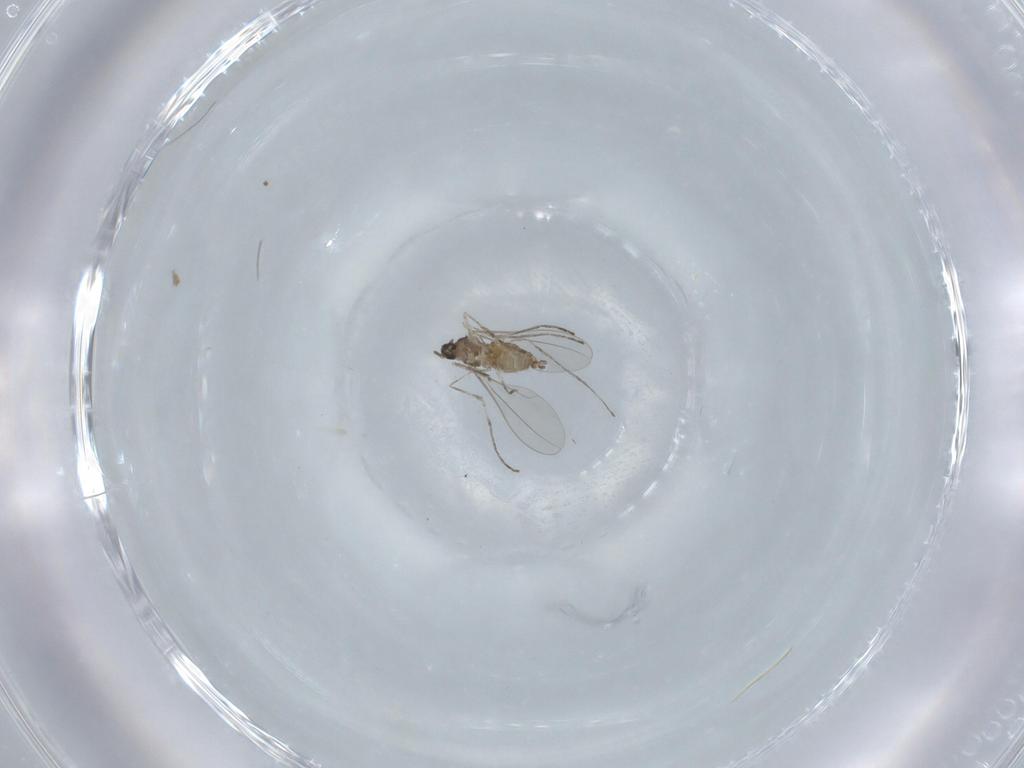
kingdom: Animalia
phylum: Arthropoda
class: Insecta
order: Diptera
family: Cecidomyiidae
